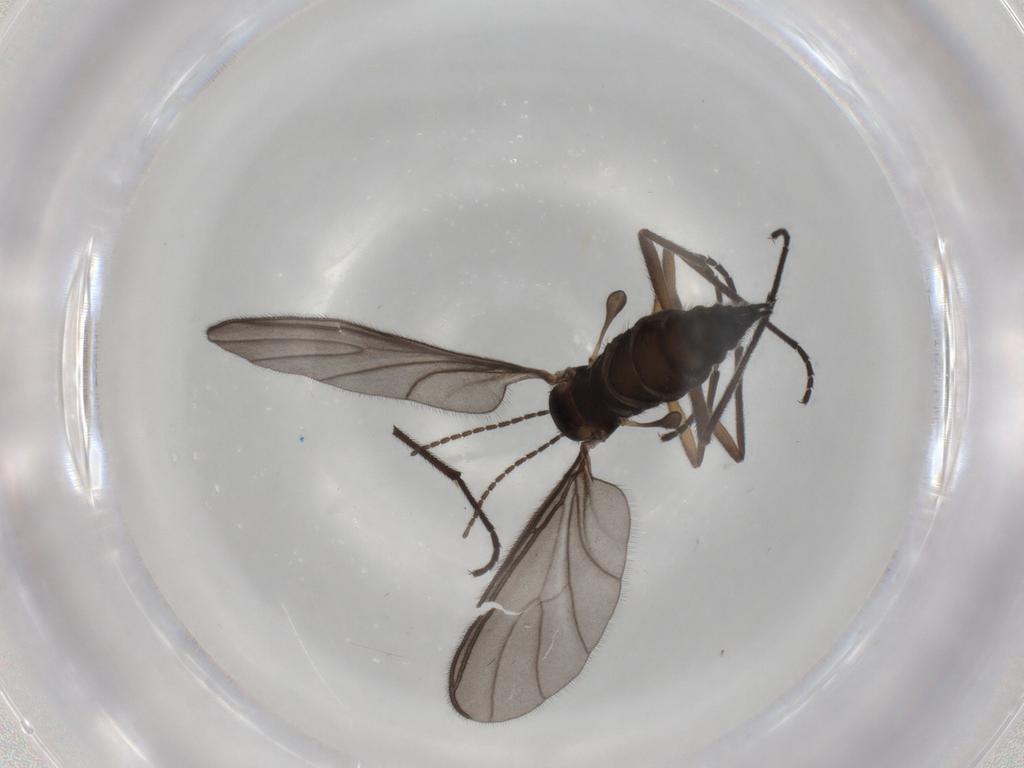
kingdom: Animalia
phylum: Arthropoda
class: Insecta
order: Diptera
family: Sciaridae
